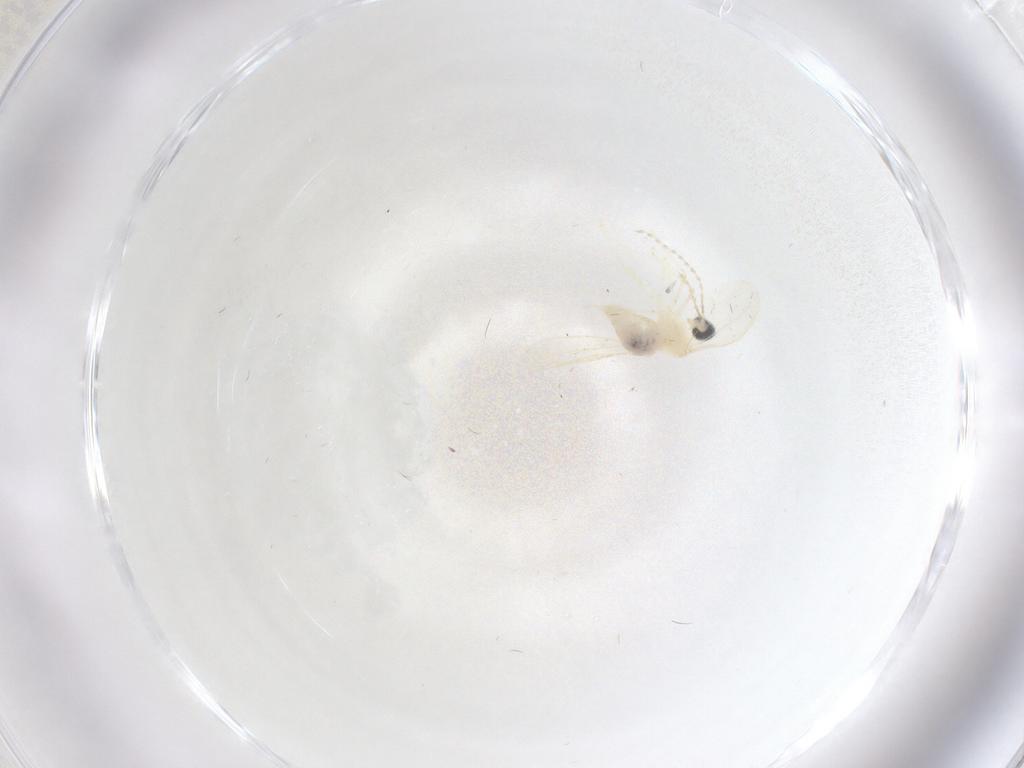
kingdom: Animalia
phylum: Arthropoda
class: Insecta
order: Diptera
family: Cecidomyiidae
